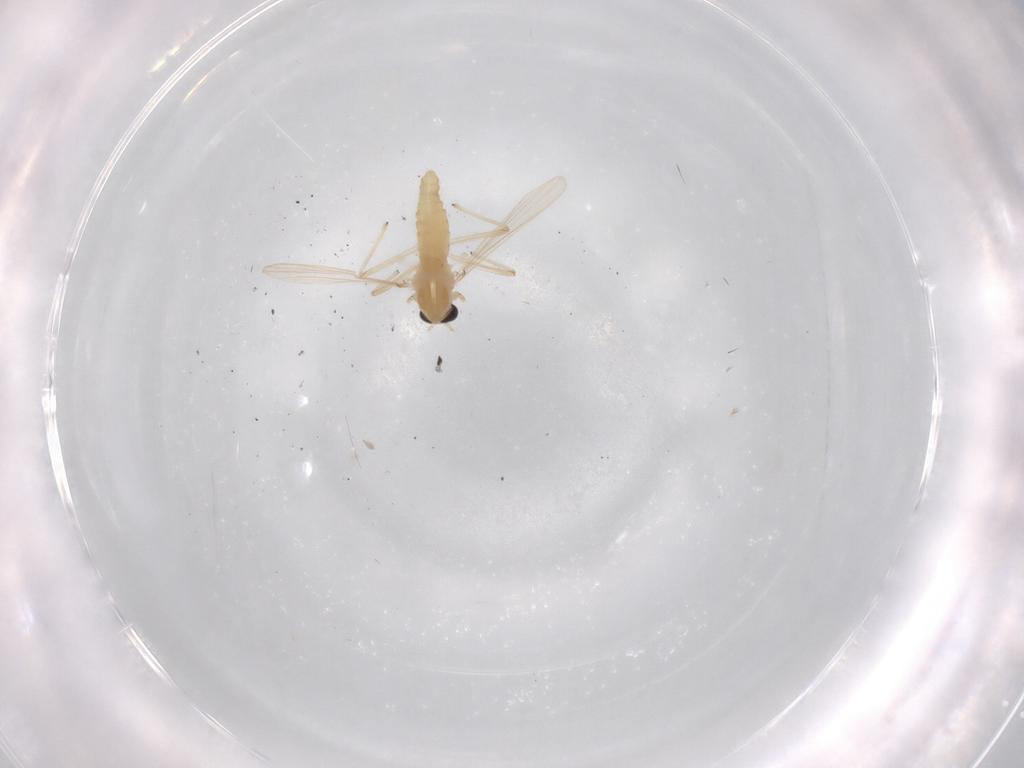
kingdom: Animalia
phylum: Arthropoda
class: Insecta
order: Diptera
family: Chironomidae
